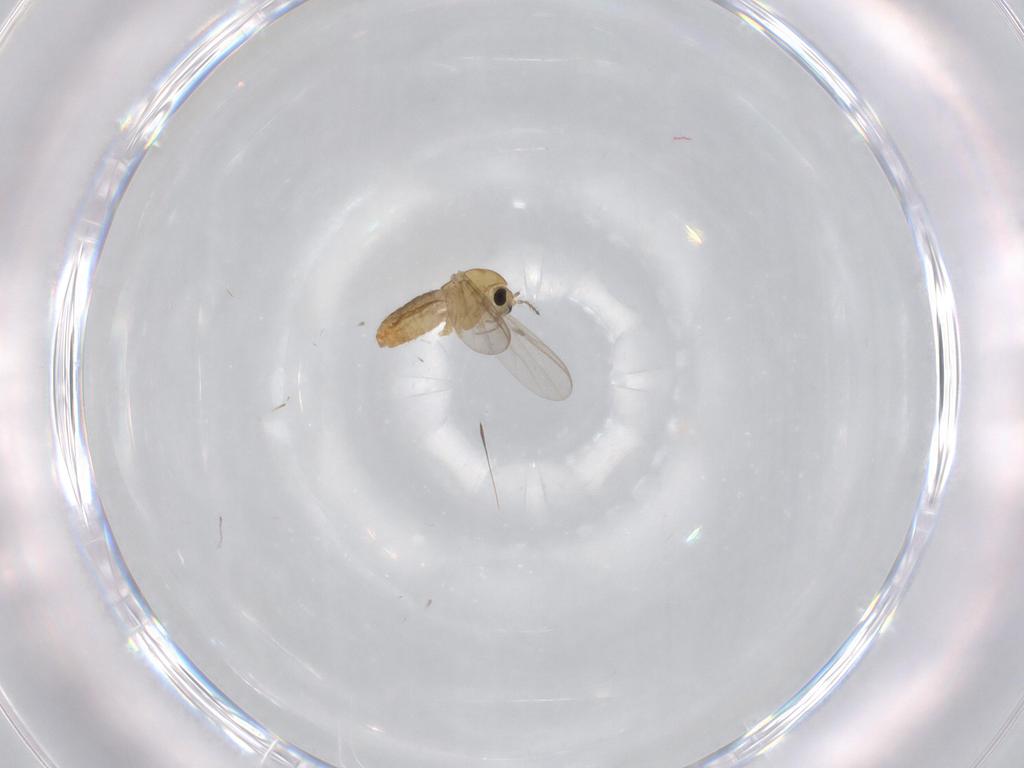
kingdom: Animalia
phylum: Arthropoda
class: Insecta
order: Diptera
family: Chironomidae
